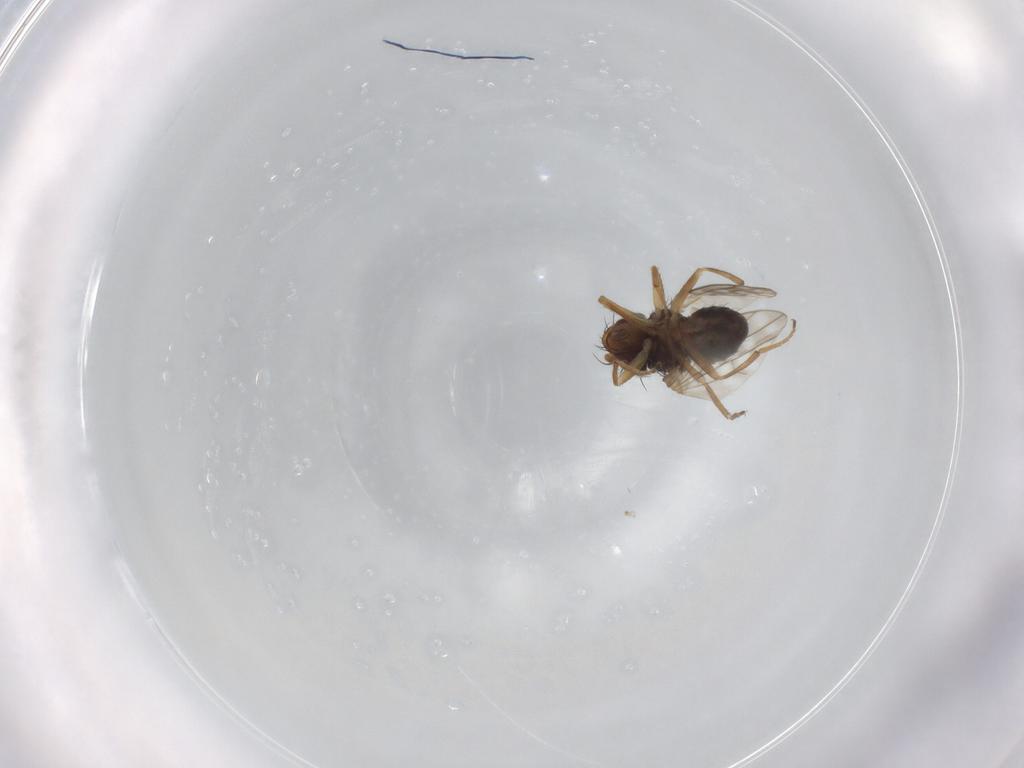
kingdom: Animalia
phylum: Arthropoda
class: Insecta
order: Diptera
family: Ephydridae
